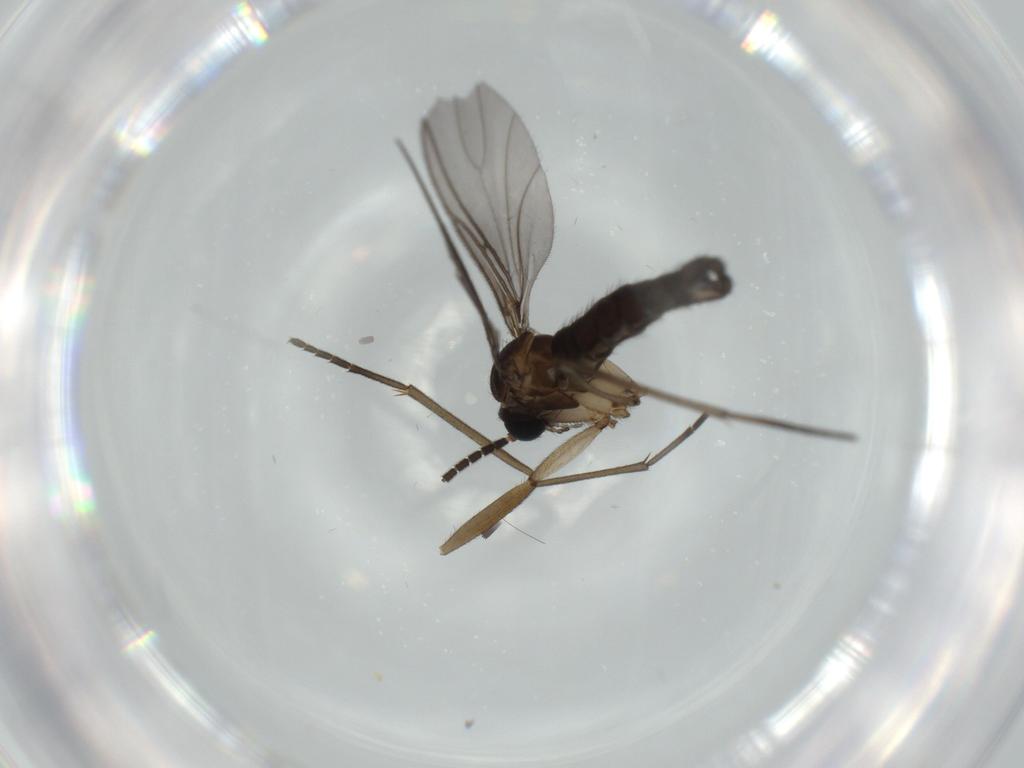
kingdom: Animalia
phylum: Arthropoda
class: Insecta
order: Diptera
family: Sciaridae
